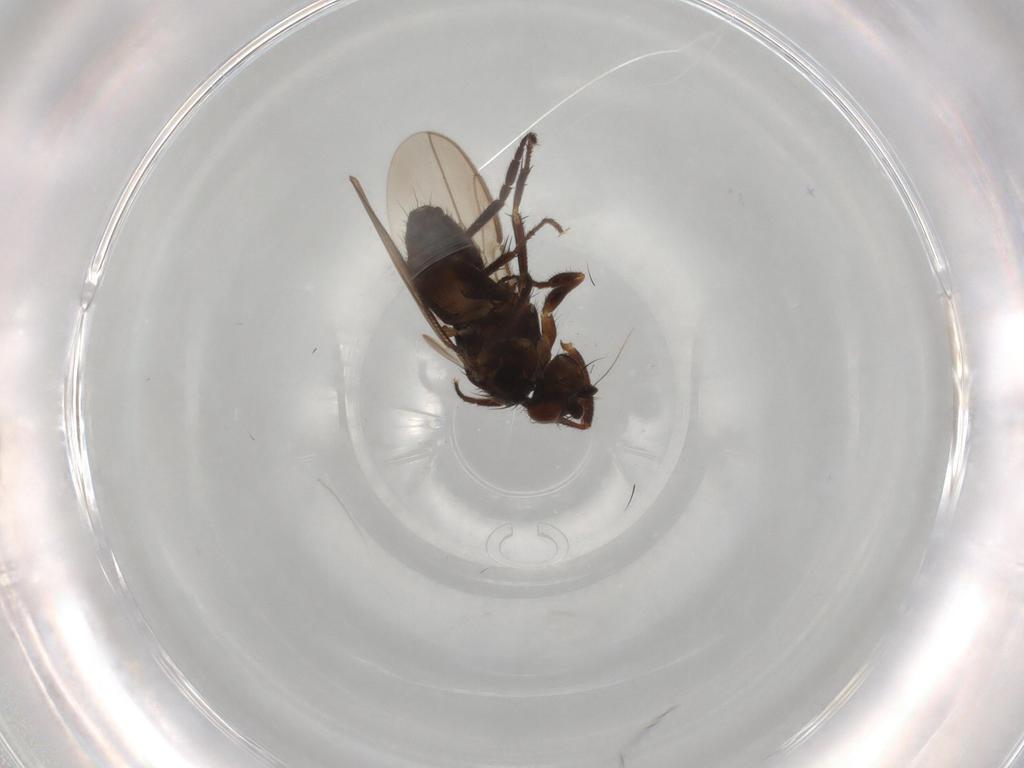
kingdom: Animalia
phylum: Arthropoda
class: Insecta
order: Diptera
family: Sphaeroceridae
